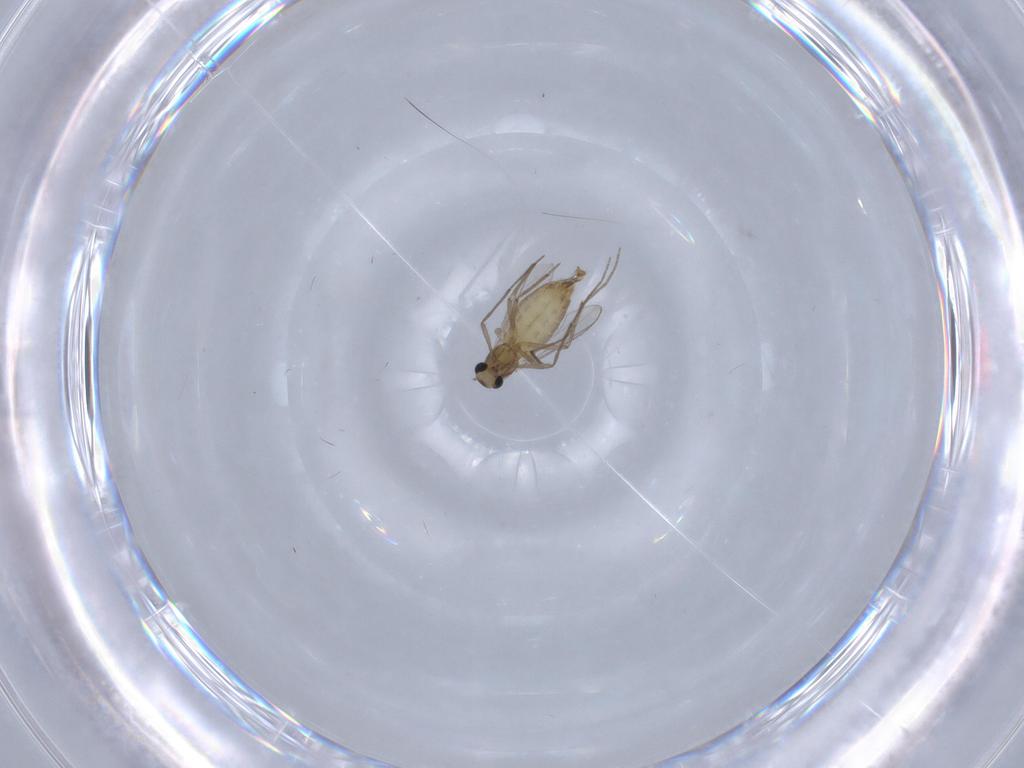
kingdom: Animalia
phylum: Arthropoda
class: Insecta
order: Diptera
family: Chironomidae
